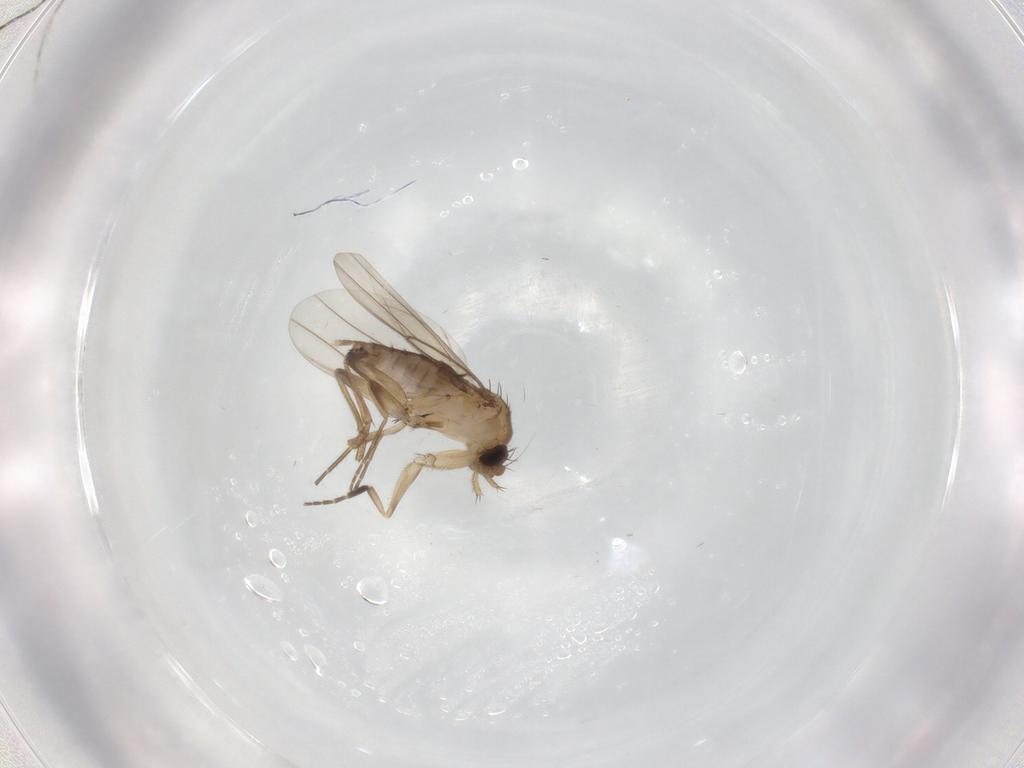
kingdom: Animalia
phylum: Arthropoda
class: Insecta
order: Diptera
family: Phoridae
